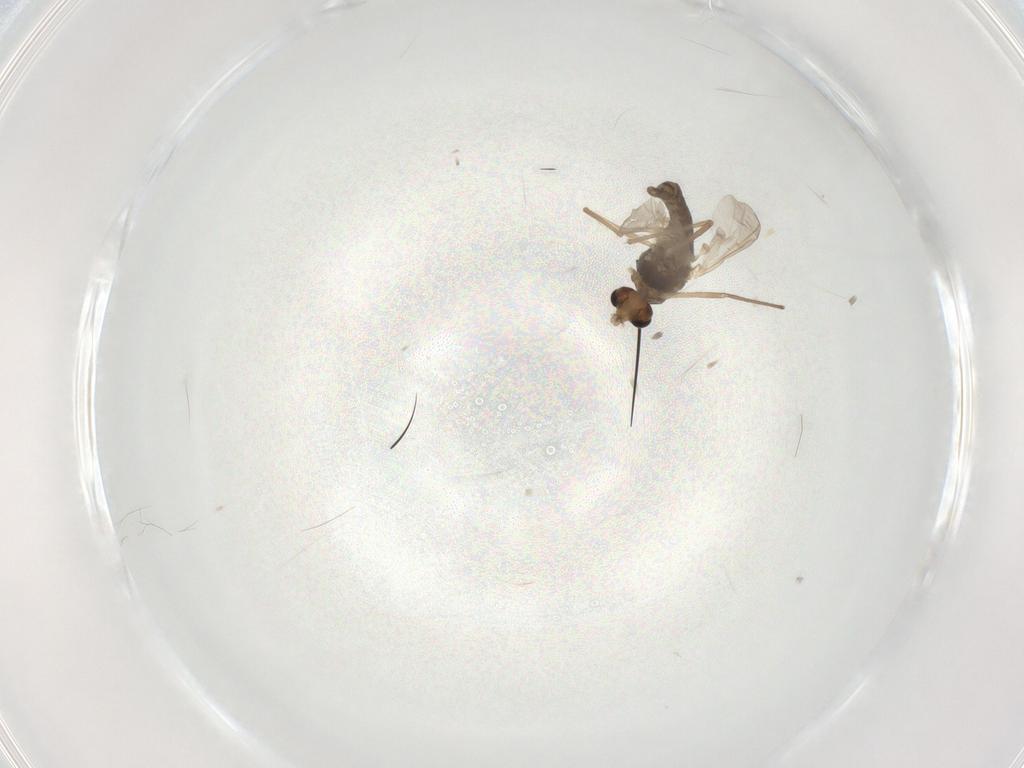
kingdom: Animalia
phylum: Arthropoda
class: Insecta
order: Diptera
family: Chironomidae
